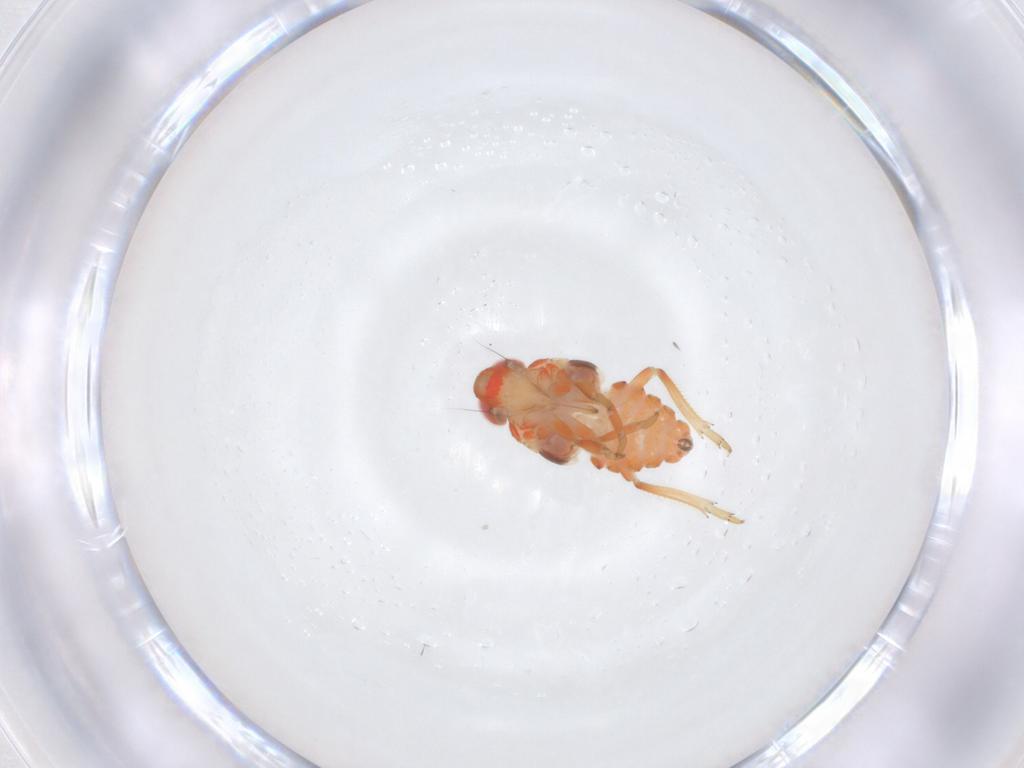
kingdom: Animalia
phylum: Arthropoda
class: Insecta
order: Hemiptera
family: Issidae
